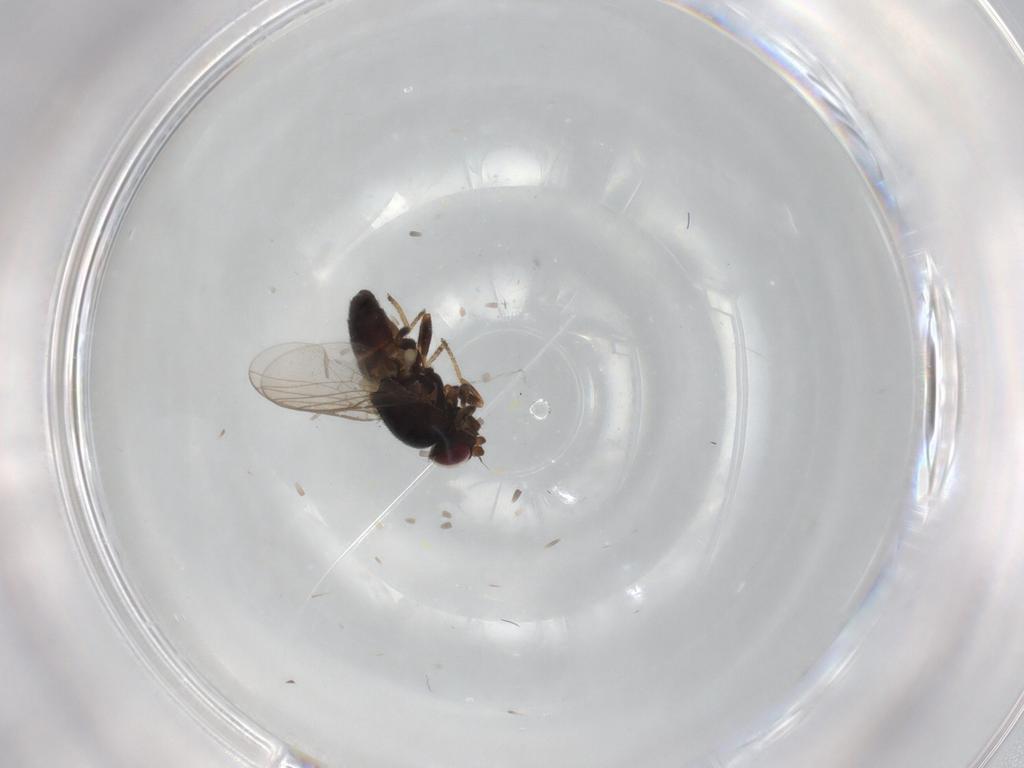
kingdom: Animalia
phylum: Arthropoda
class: Insecta
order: Diptera
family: Chloropidae
